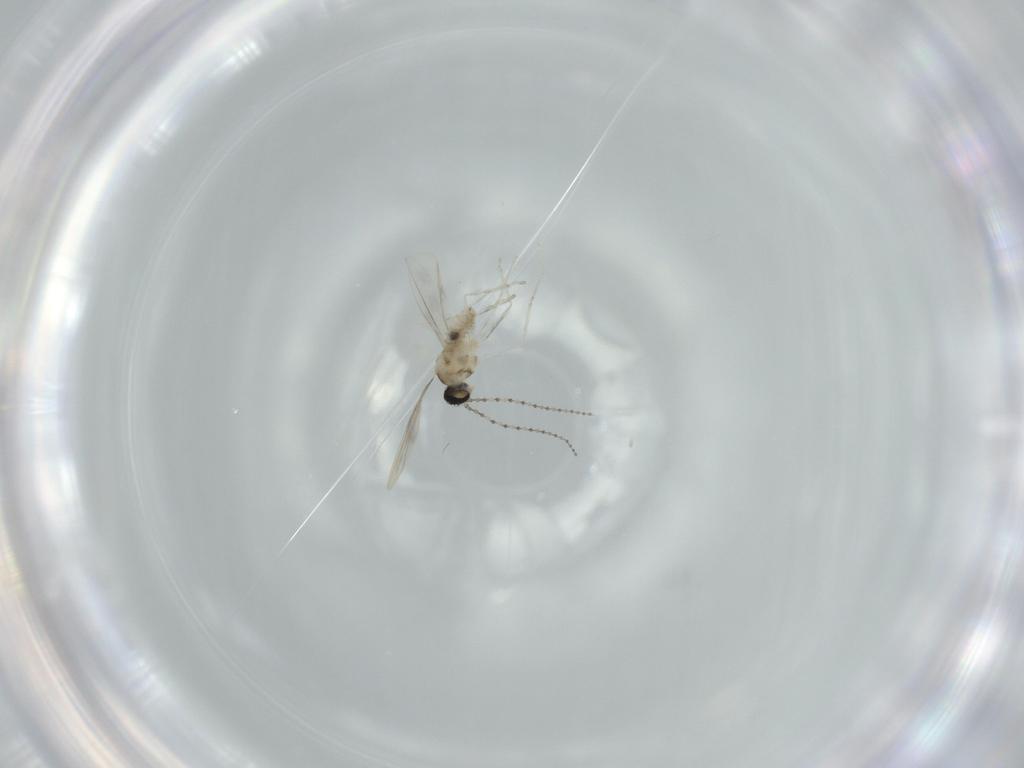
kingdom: Animalia
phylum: Arthropoda
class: Insecta
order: Diptera
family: Cecidomyiidae
